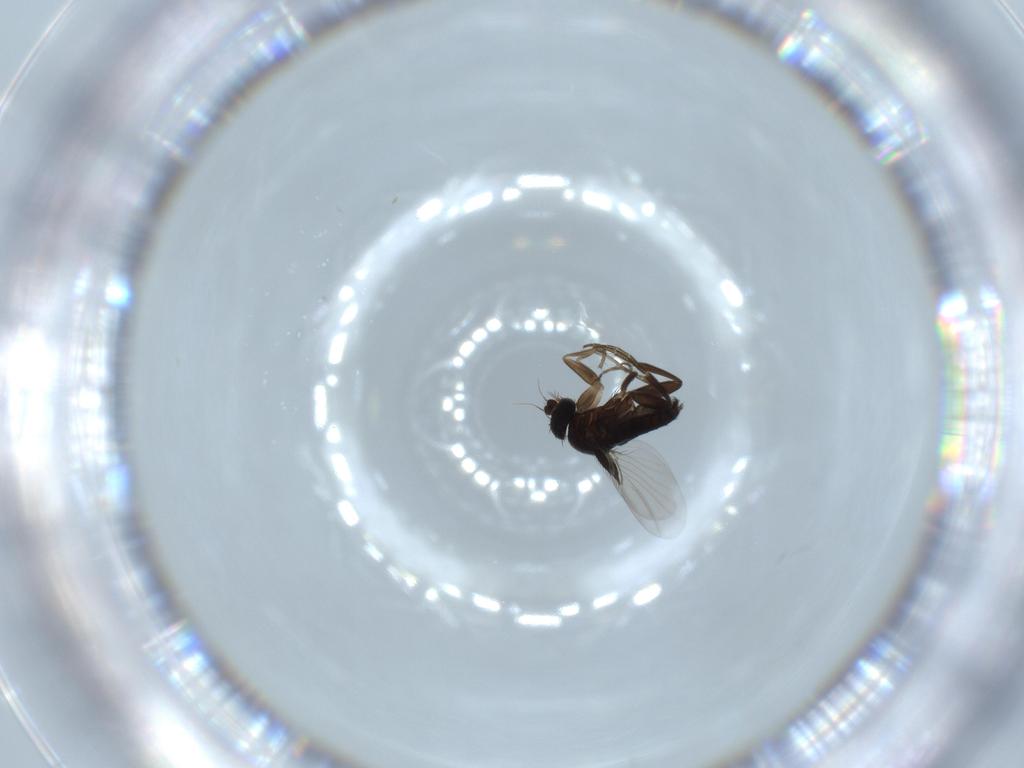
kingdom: Animalia
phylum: Arthropoda
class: Insecta
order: Diptera
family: Phoridae
